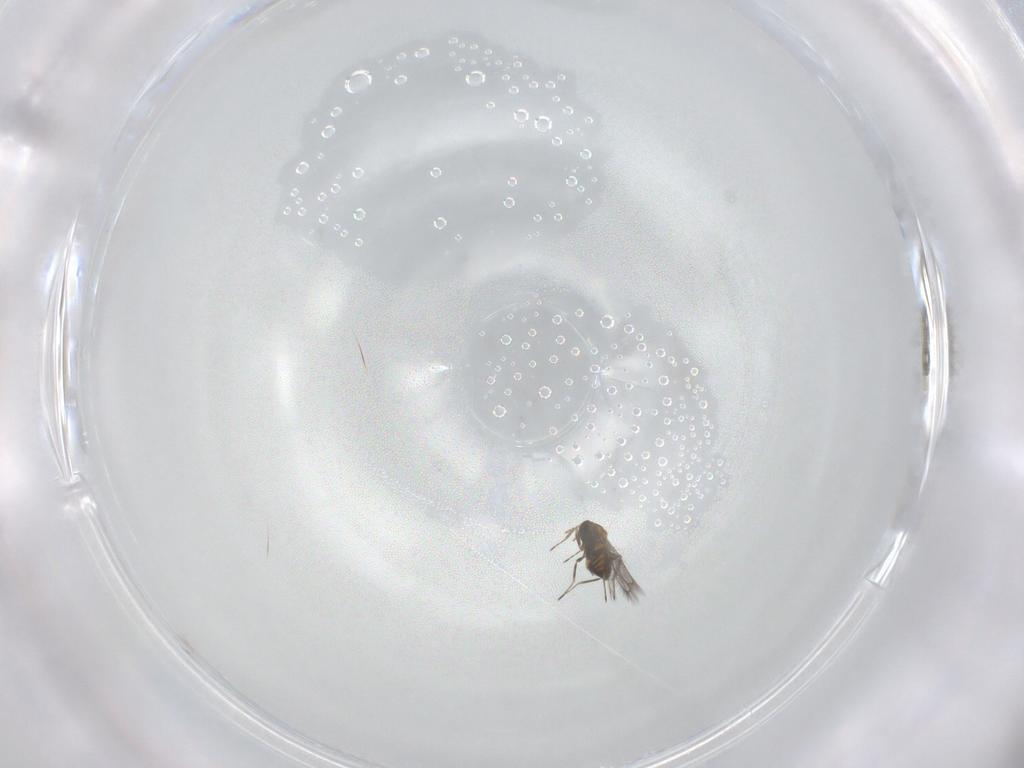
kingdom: Animalia
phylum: Arthropoda
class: Insecta
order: Hymenoptera
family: Trichogrammatidae
